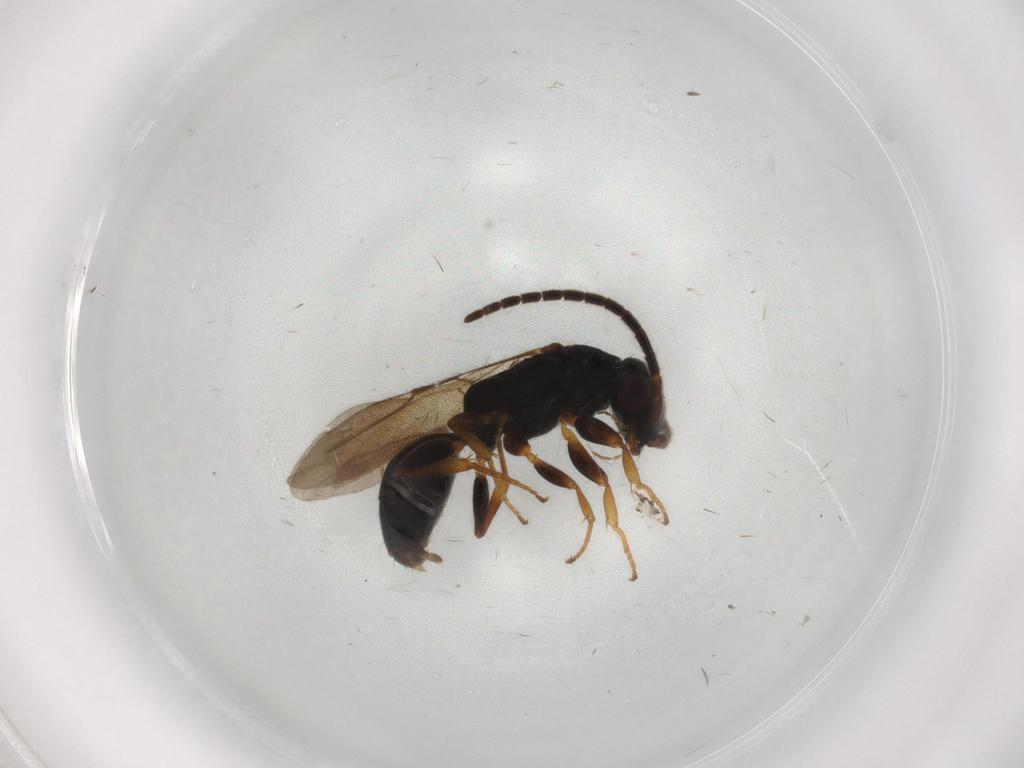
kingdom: Animalia
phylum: Arthropoda
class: Insecta
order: Hymenoptera
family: Bethylidae
